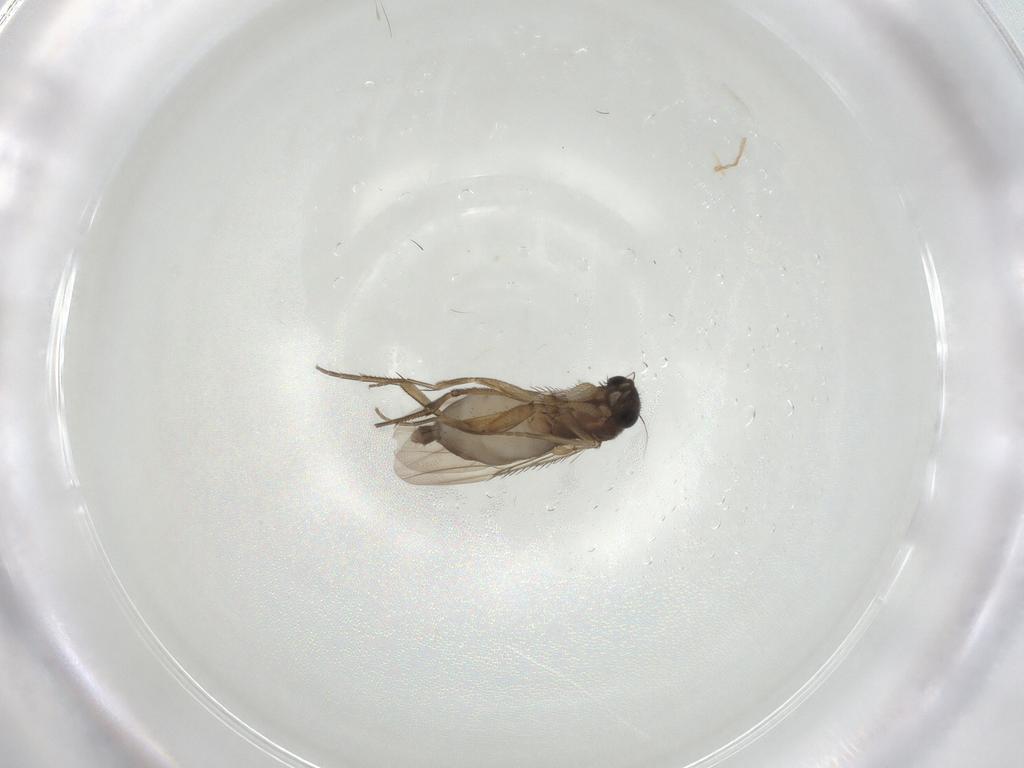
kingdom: Animalia
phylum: Arthropoda
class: Insecta
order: Diptera
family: Phoridae
